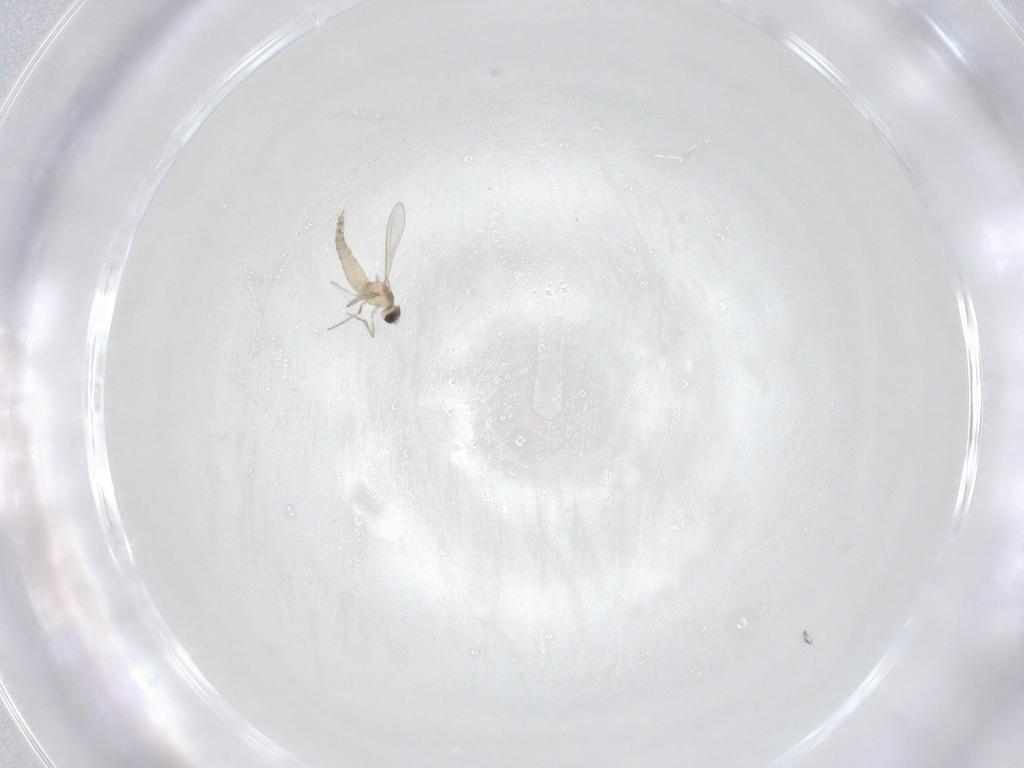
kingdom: Animalia
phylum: Arthropoda
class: Insecta
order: Diptera
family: Cecidomyiidae
